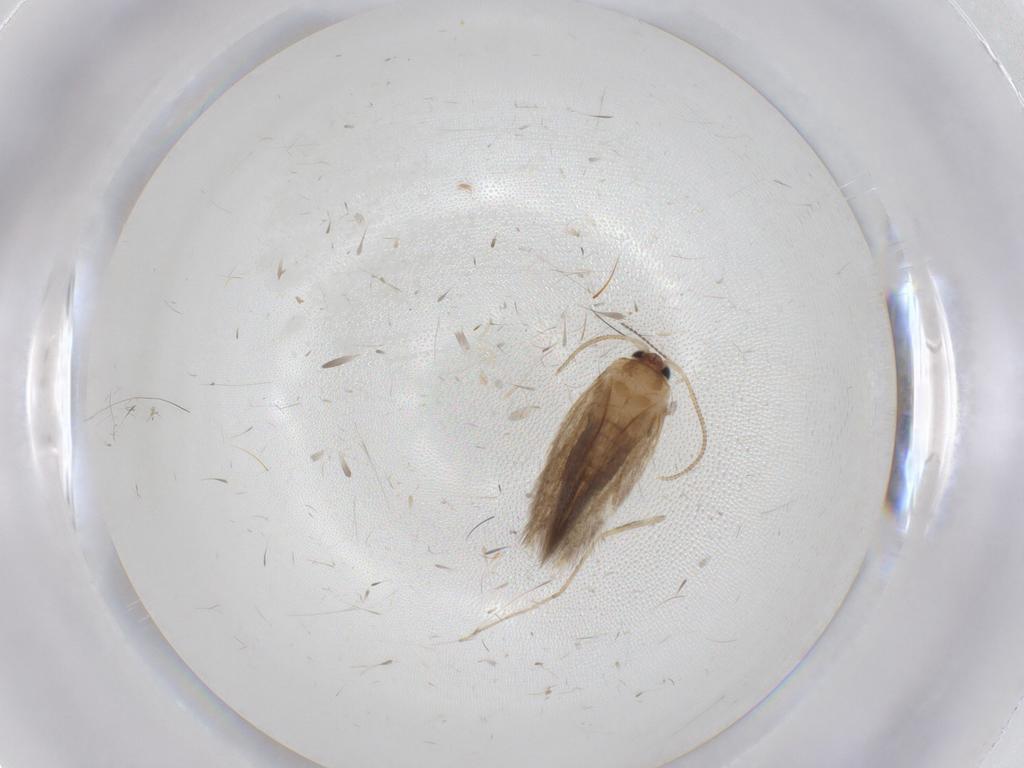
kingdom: Animalia
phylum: Arthropoda
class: Insecta
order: Lepidoptera
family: Nepticulidae
